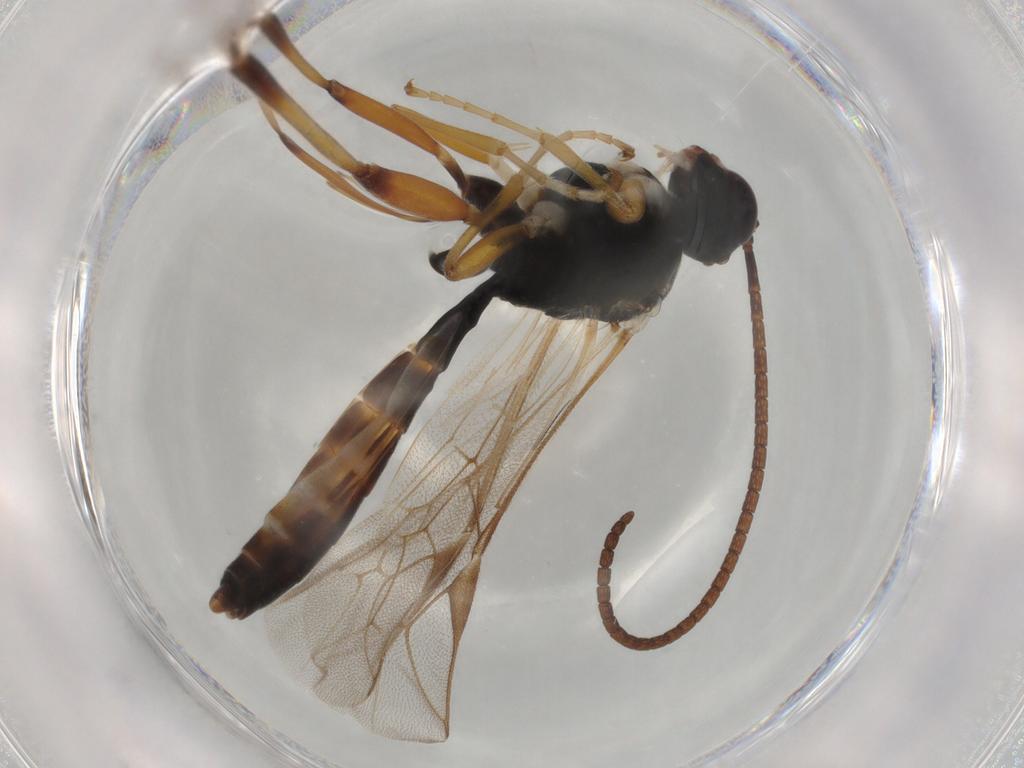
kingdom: Animalia
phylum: Arthropoda
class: Insecta
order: Hymenoptera
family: Ichneumonidae
